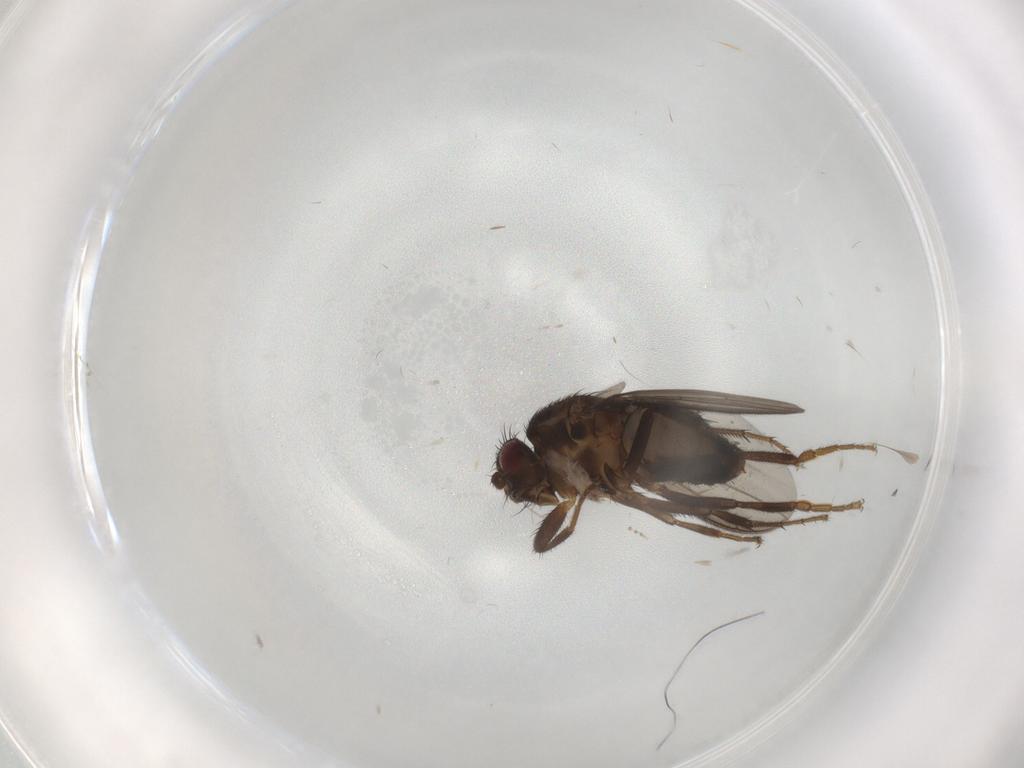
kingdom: Animalia
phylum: Arthropoda
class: Insecta
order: Diptera
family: Sphaeroceridae
